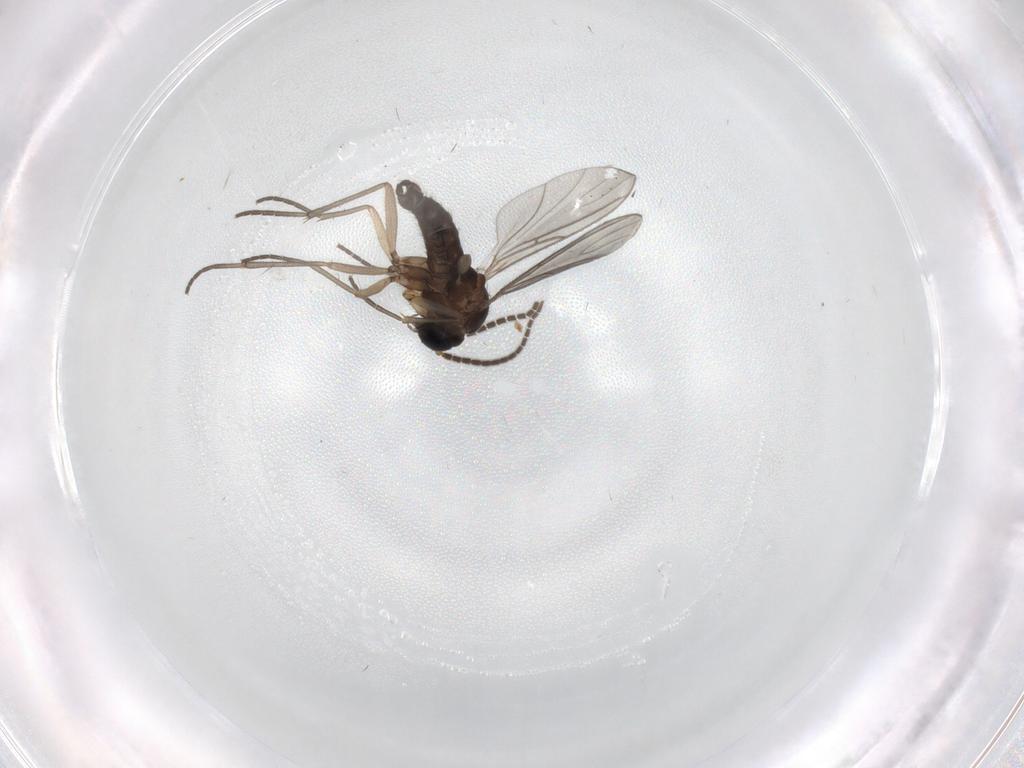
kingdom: Animalia
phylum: Arthropoda
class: Insecta
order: Diptera
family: Sciaridae
